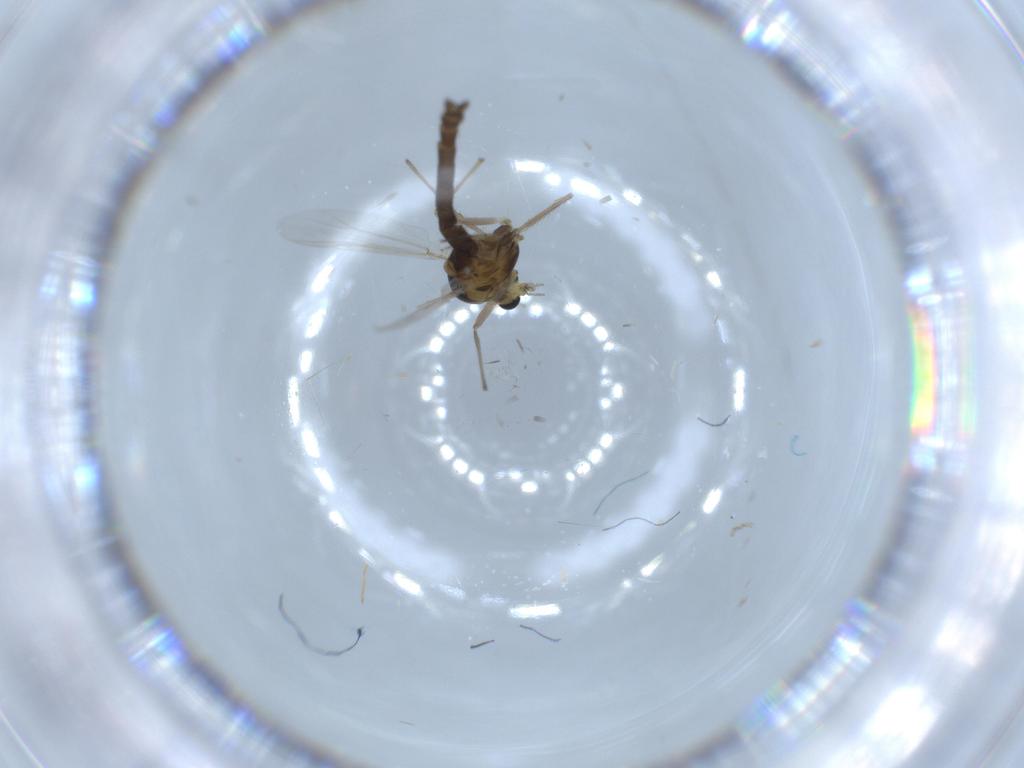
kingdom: Animalia
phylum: Arthropoda
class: Insecta
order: Diptera
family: Chironomidae
